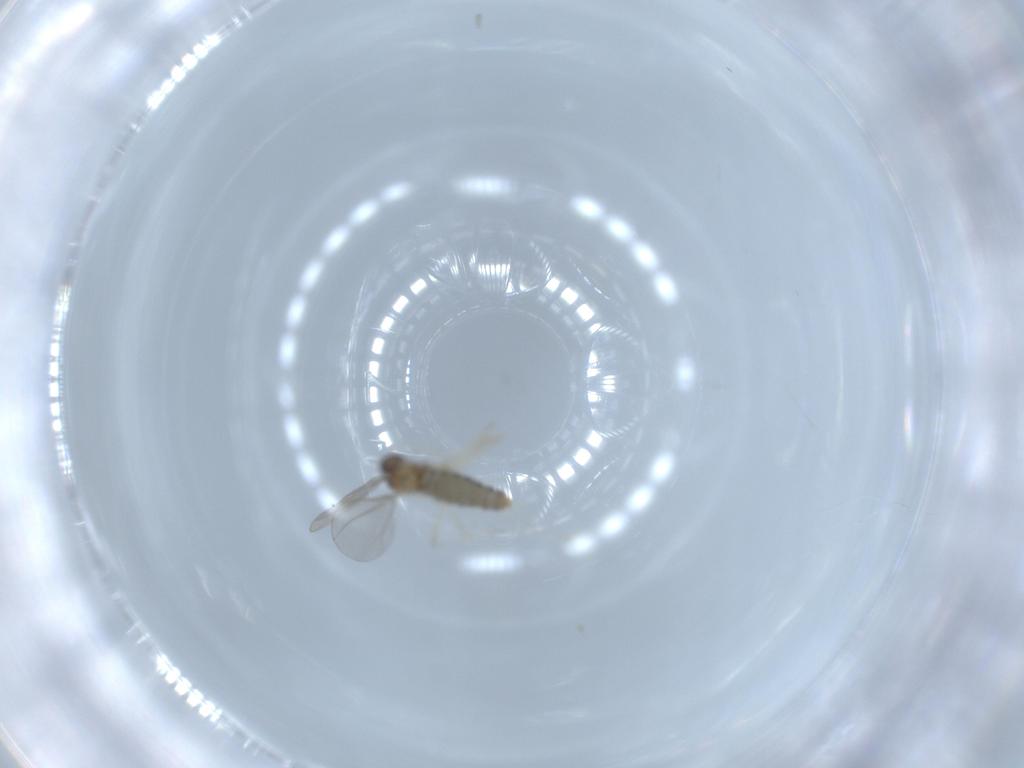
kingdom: Animalia
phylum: Arthropoda
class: Insecta
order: Diptera
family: Cecidomyiidae
